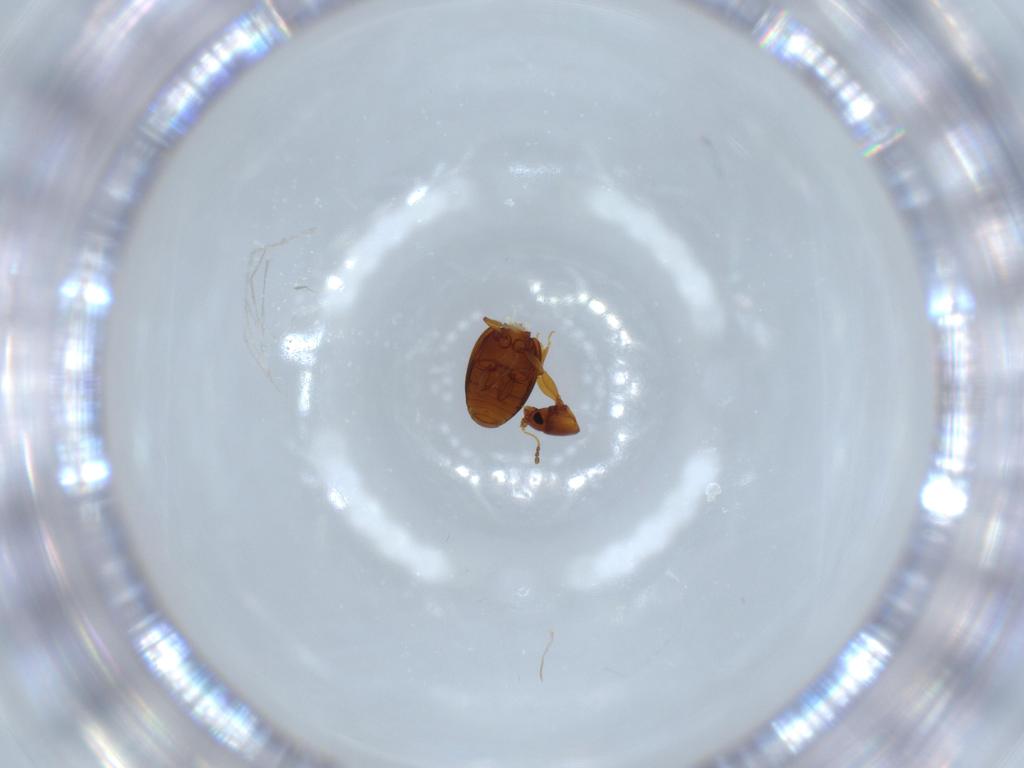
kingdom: Animalia
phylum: Arthropoda
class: Insecta
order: Coleoptera
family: Latridiidae
